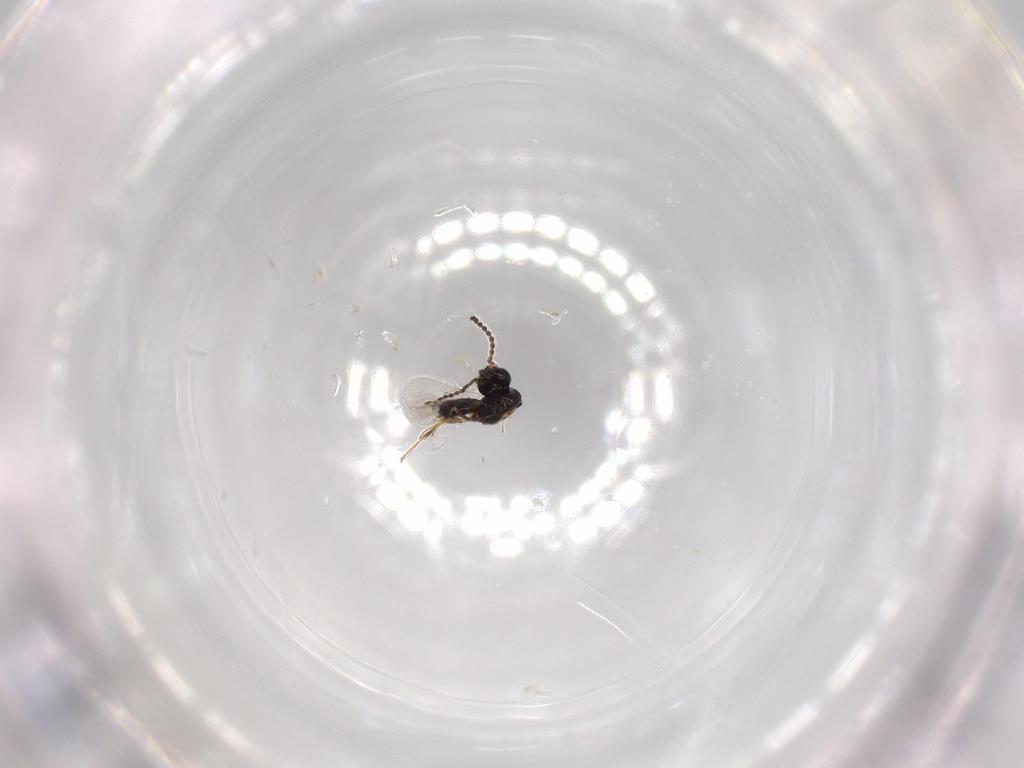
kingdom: Animalia
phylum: Arthropoda
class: Insecta
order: Hymenoptera
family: Scelionidae
